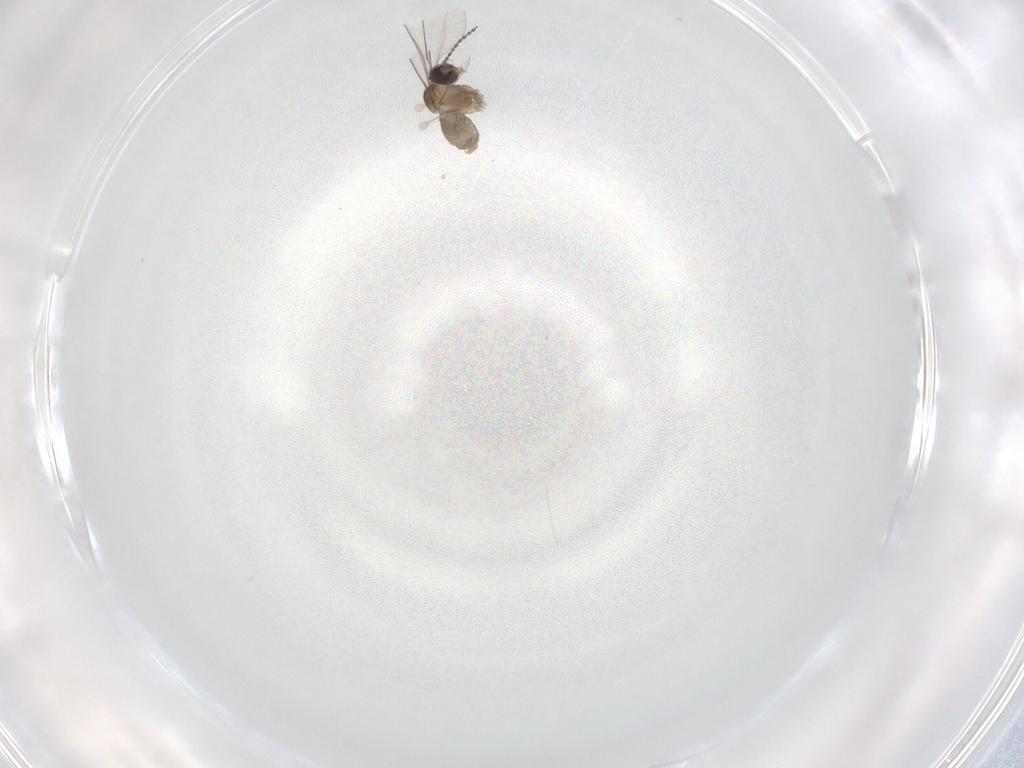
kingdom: Animalia
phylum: Arthropoda
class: Insecta
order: Diptera
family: Cecidomyiidae
